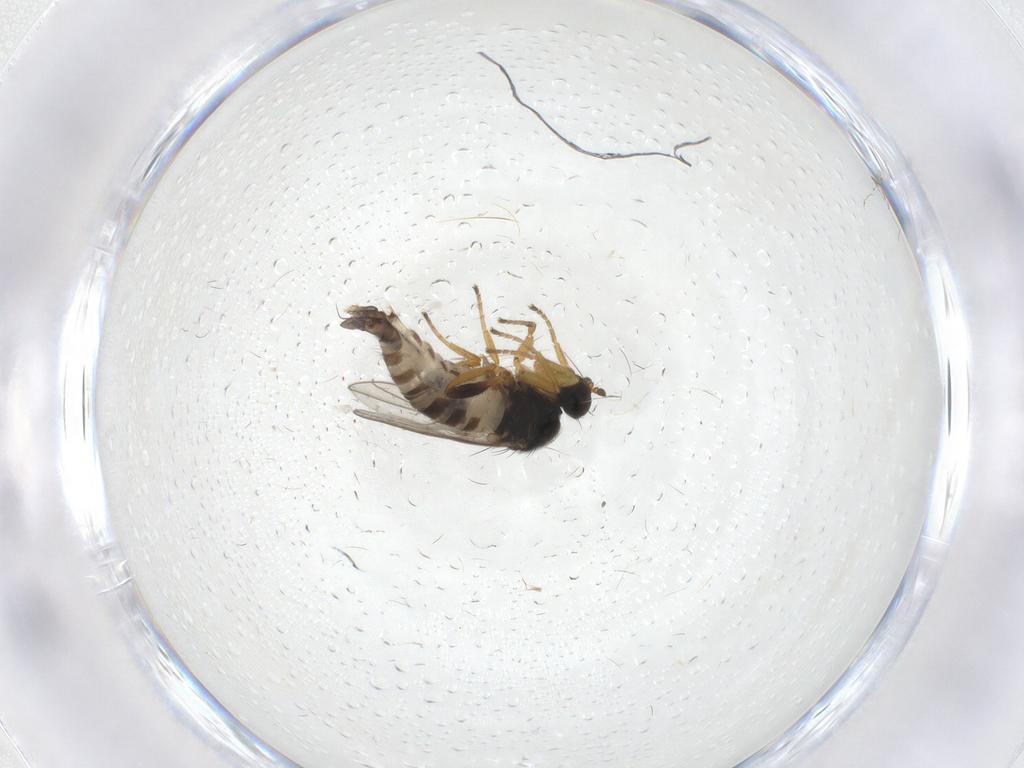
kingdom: Animalia
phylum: Arthropoda
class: Insecta
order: Diptera
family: Hybotidae
